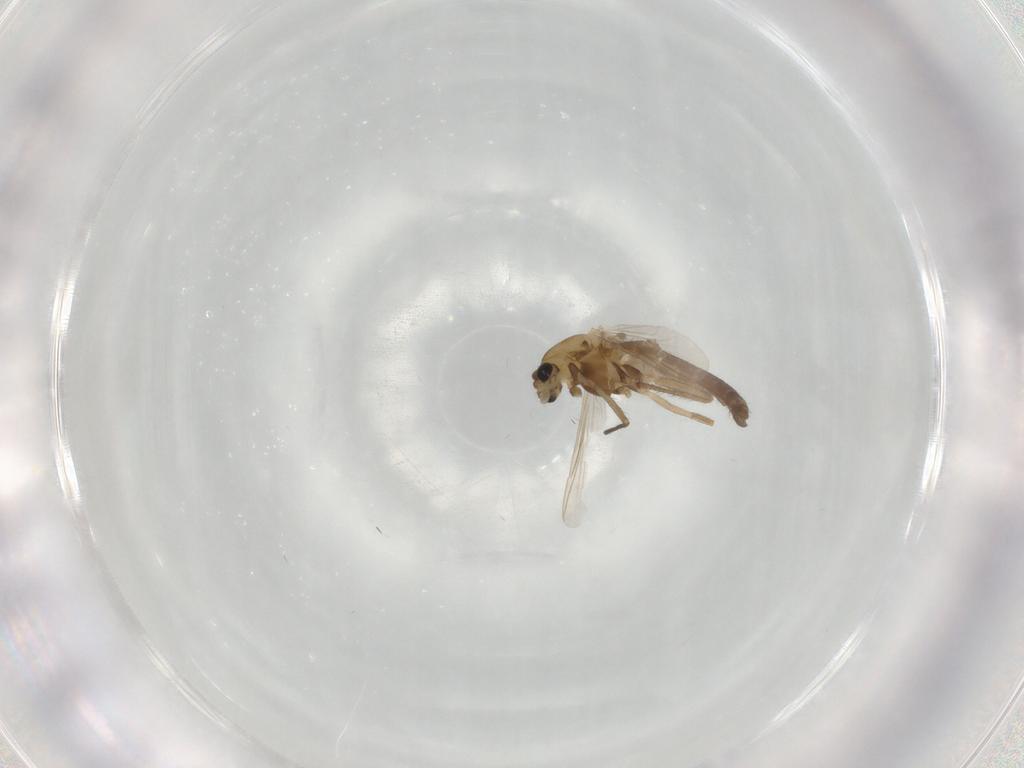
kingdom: Animalia
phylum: Arthropoda
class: Insecta
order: Diptera
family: Chironomidae
